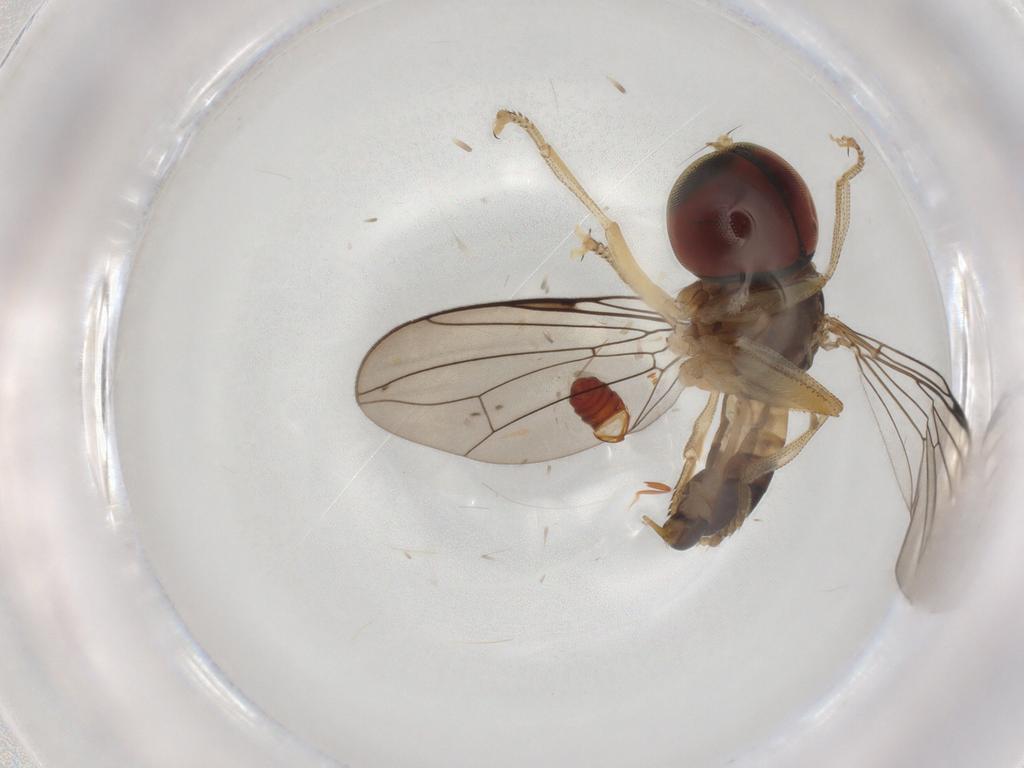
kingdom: Animalia
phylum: Arthropoda
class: Insecta
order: Diptera
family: Pipunculidae
